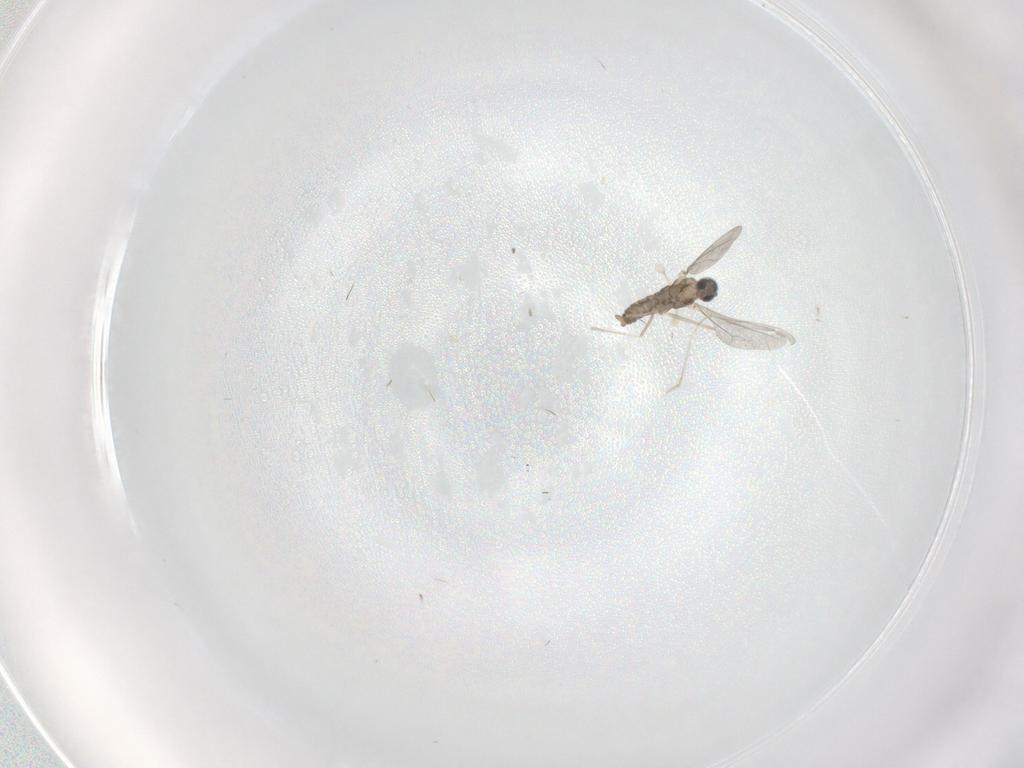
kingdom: Animalia
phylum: Arthropoda
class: Insecta
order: Diptera
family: Cecidomyiidae
